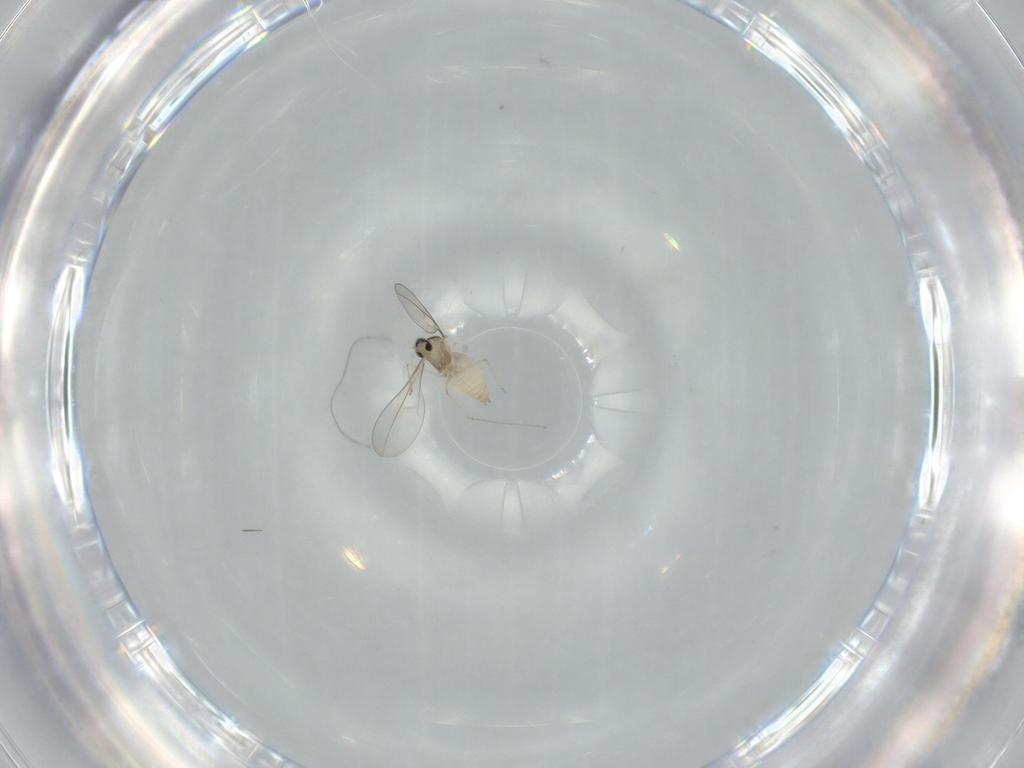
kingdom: Animalia
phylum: Arthropoda
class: Insecta
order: Diptera
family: Cecidomyiidae
